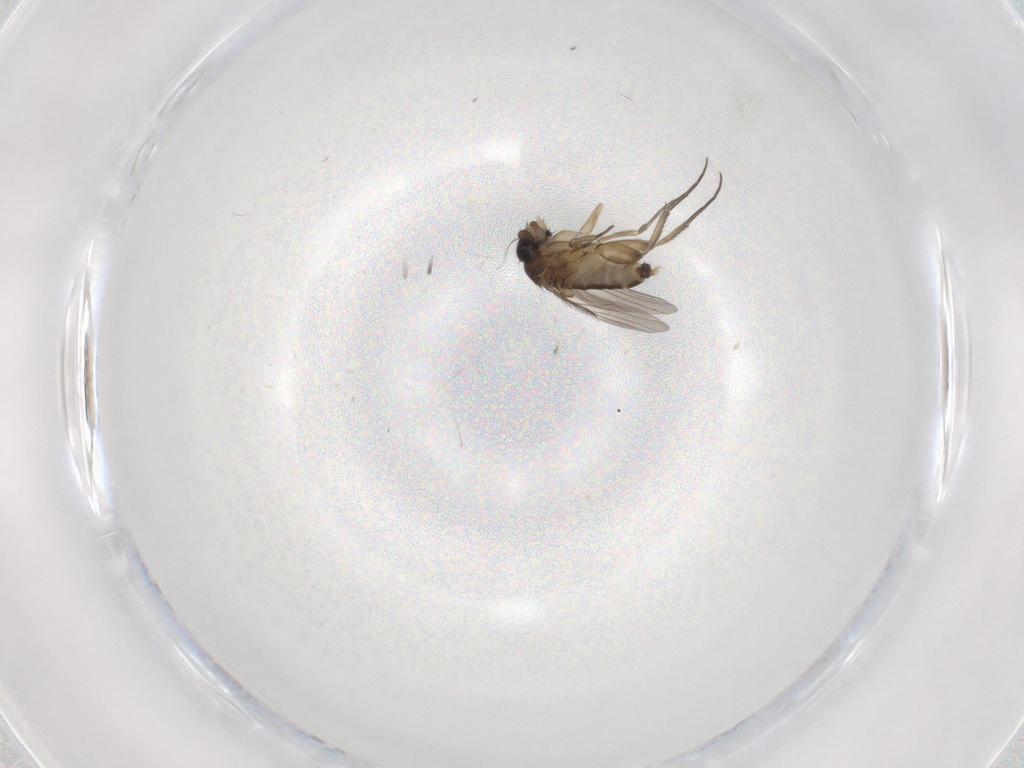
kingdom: Animalia
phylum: Arthropoda
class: Insecta
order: Diptera
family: Phoridae
